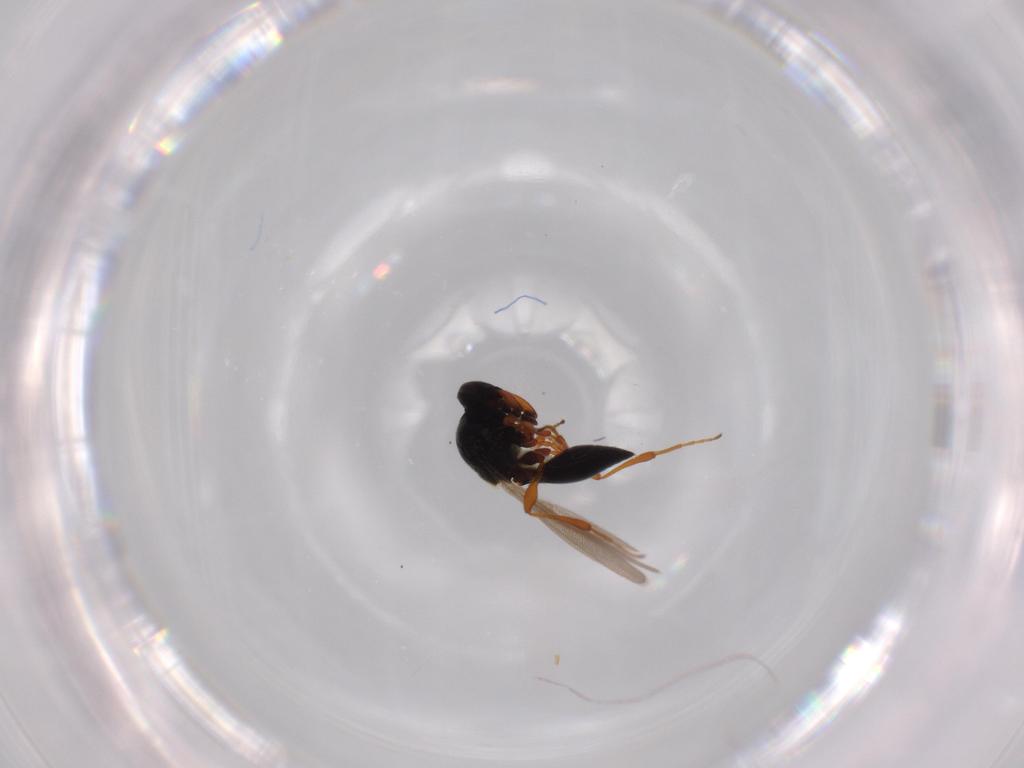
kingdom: Animalia
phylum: Arthropoda
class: Insecta
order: Hymenoptera
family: Platygastridae
